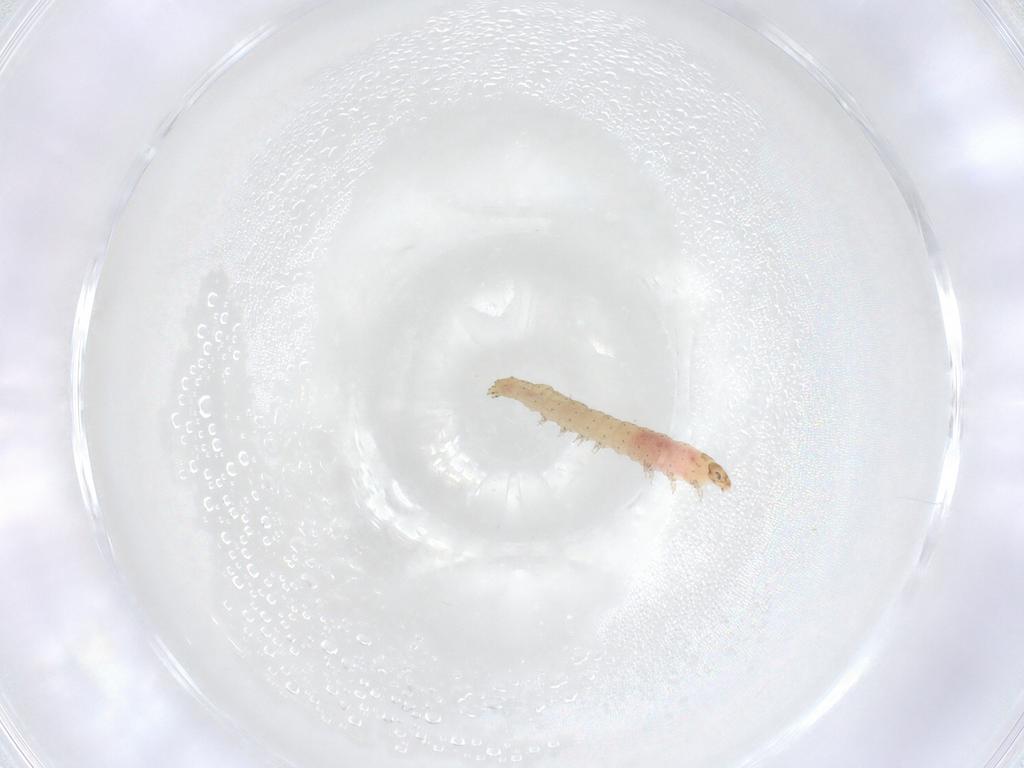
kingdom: Animalia
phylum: Arthropoda
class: Insecta
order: Lepidoptera
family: Gelechiidae
